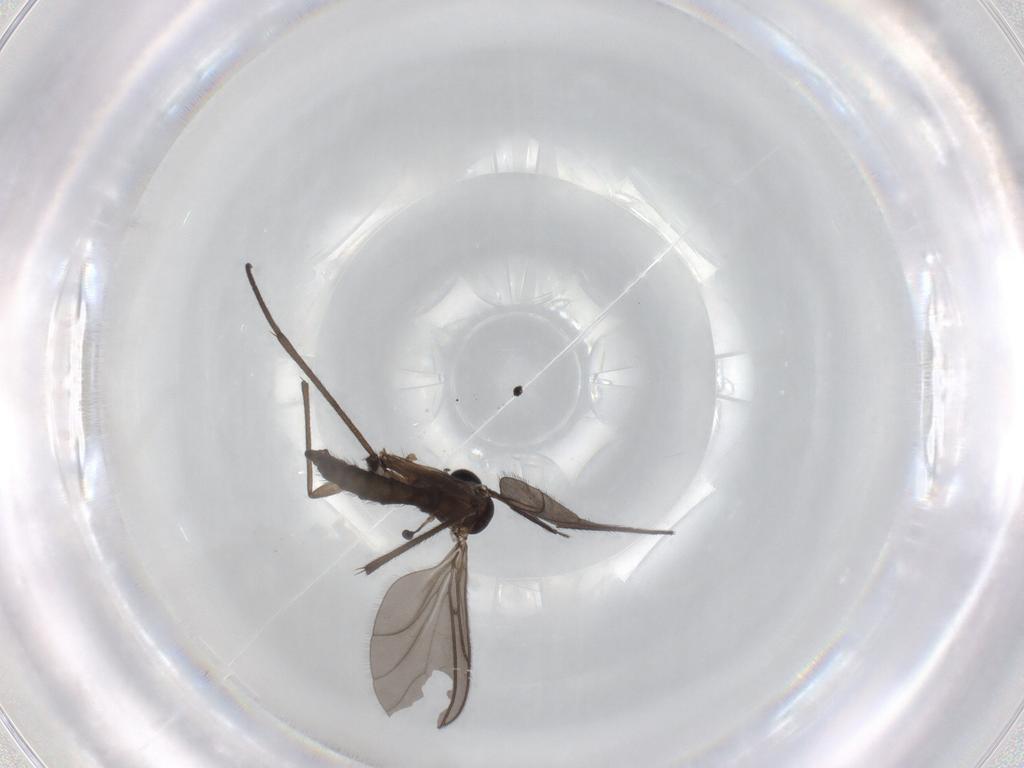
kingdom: Animalia
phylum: Arthropoda
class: Insecta
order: Diptera
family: Sciaridae
